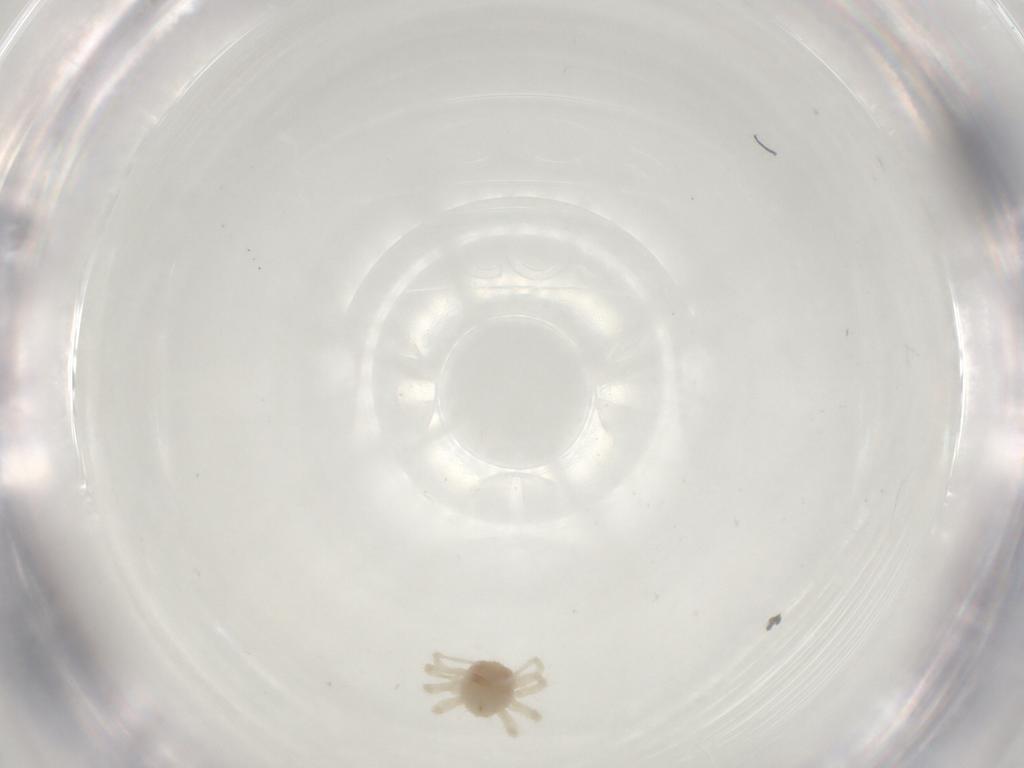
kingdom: Animalia
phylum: Arthropoda
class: Arachnida
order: Trombidiformes
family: Anystidae
